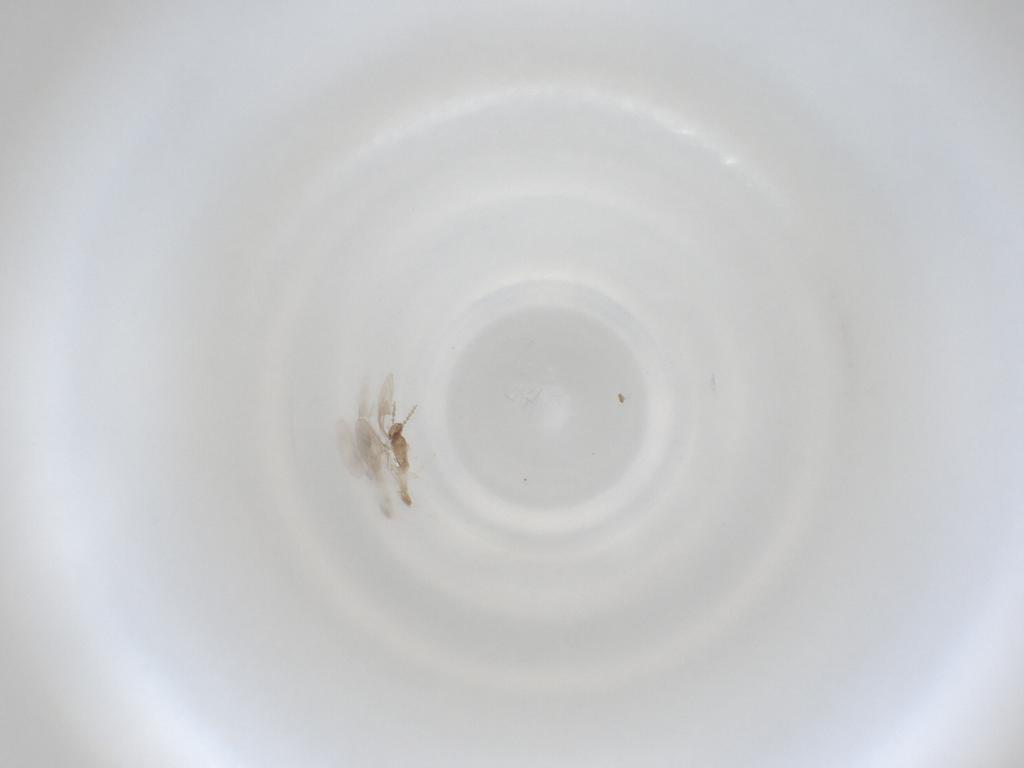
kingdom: Animalia
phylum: Arthropoda
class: Insecta
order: Diptera
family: Cecidomyiidae
